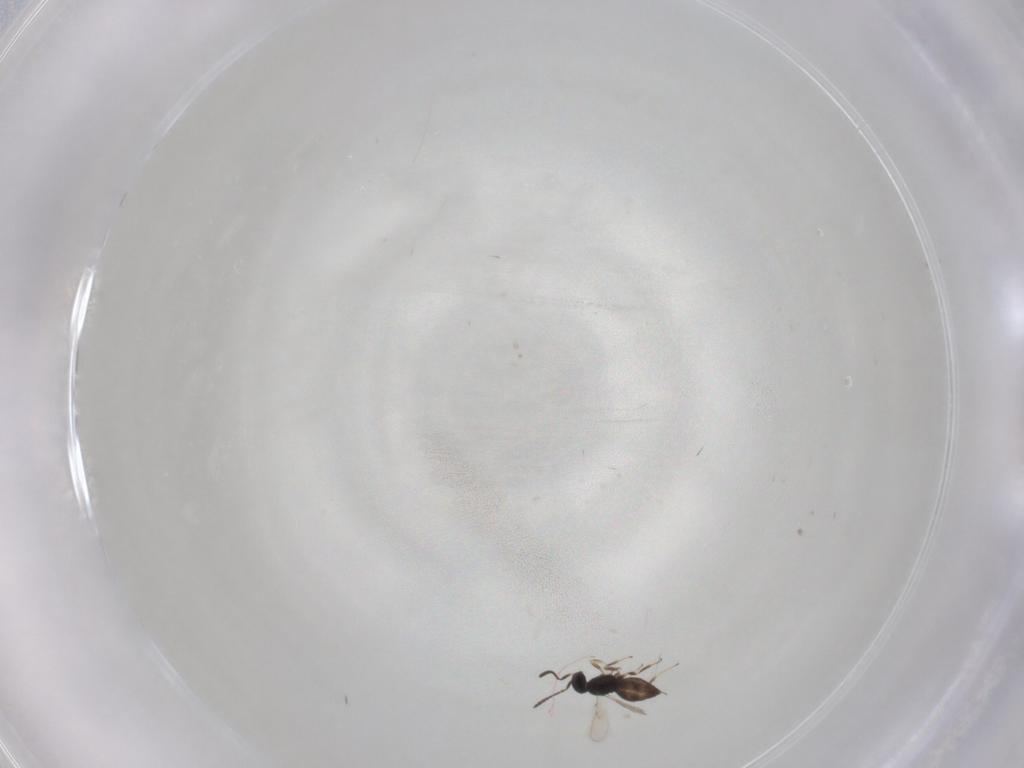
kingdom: Animalia
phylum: Arthropoda
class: Insecta
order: Hymenoptera
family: Scelionidae
